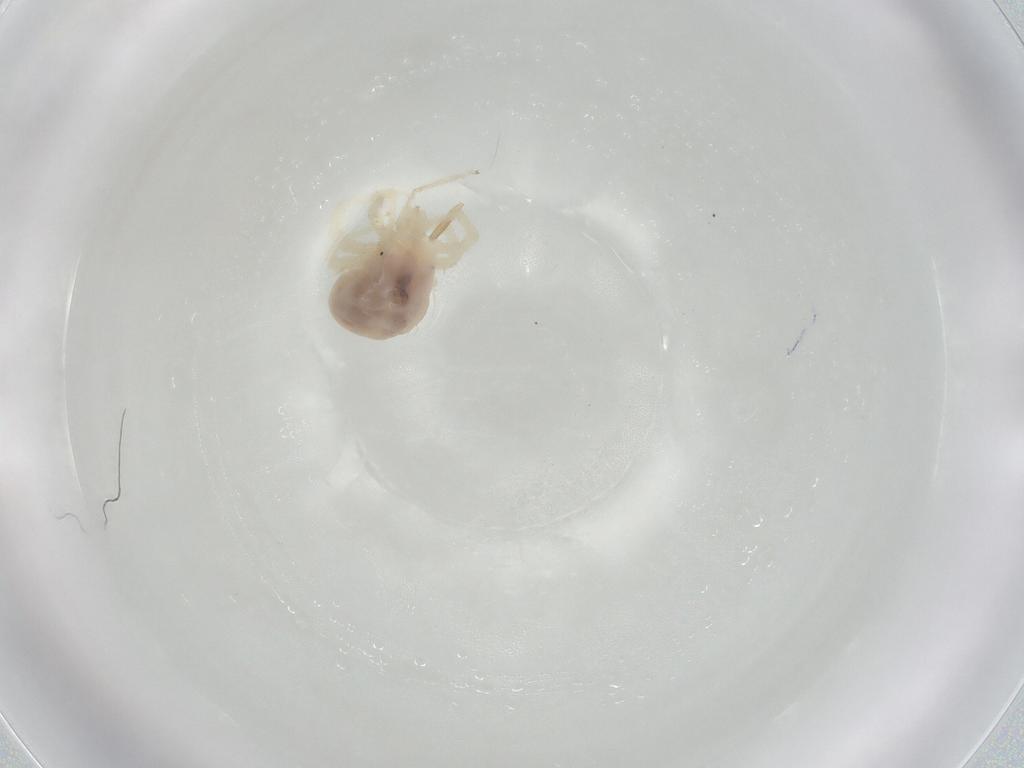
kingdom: Animalia
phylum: Arthropoda
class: Arachnida
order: Trombidiformes
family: Anystidae
